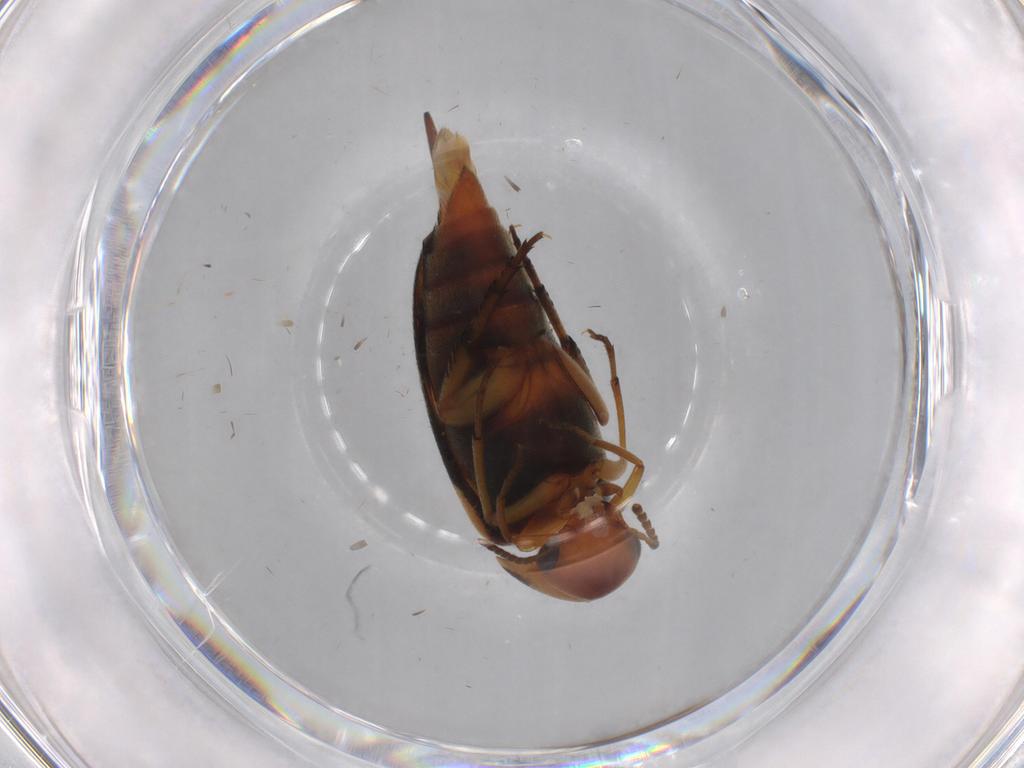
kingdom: Animalia
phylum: Arthropoda
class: Insecta
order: Coleoptera
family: Mordellidae
